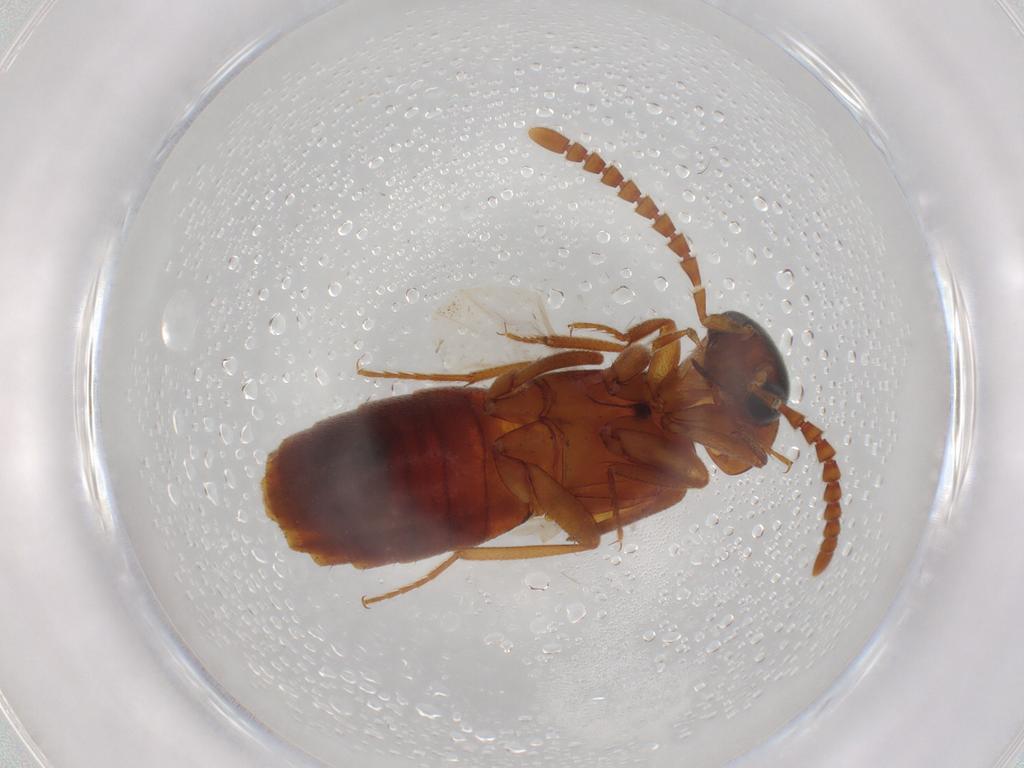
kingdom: Animalia
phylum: Arthropoda
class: Insecta
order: Coleoptera
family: Staphylinidae
